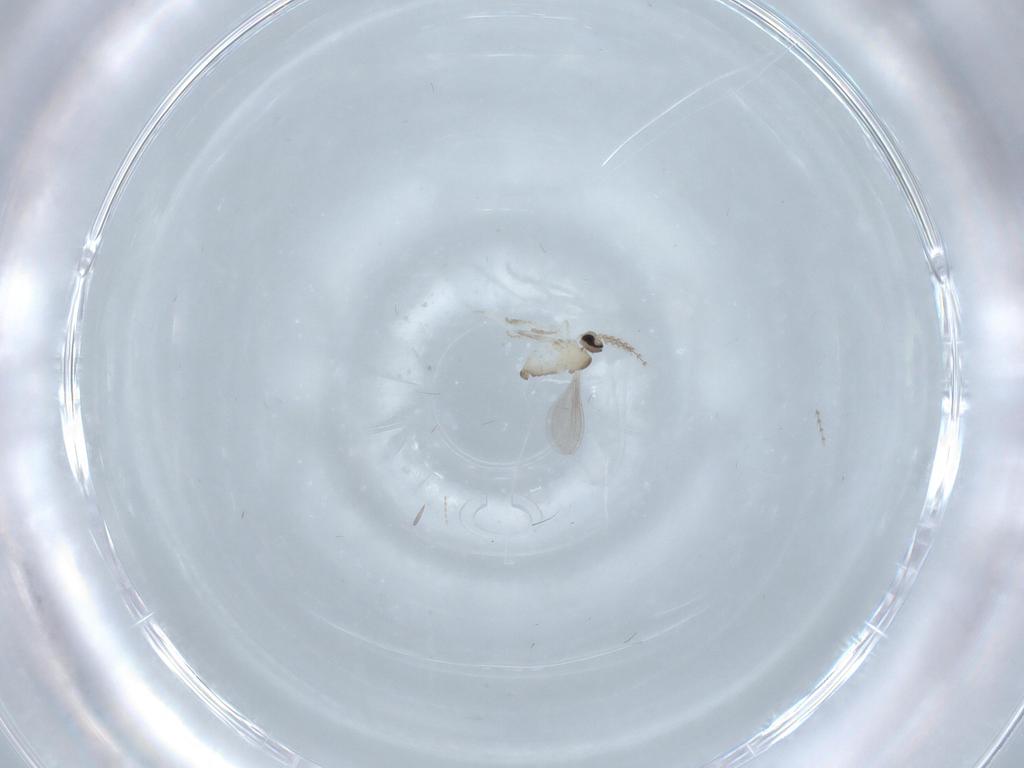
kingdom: Animalia
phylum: Arthropoda
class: Insecta
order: Diptera
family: Cecidomyiidae
